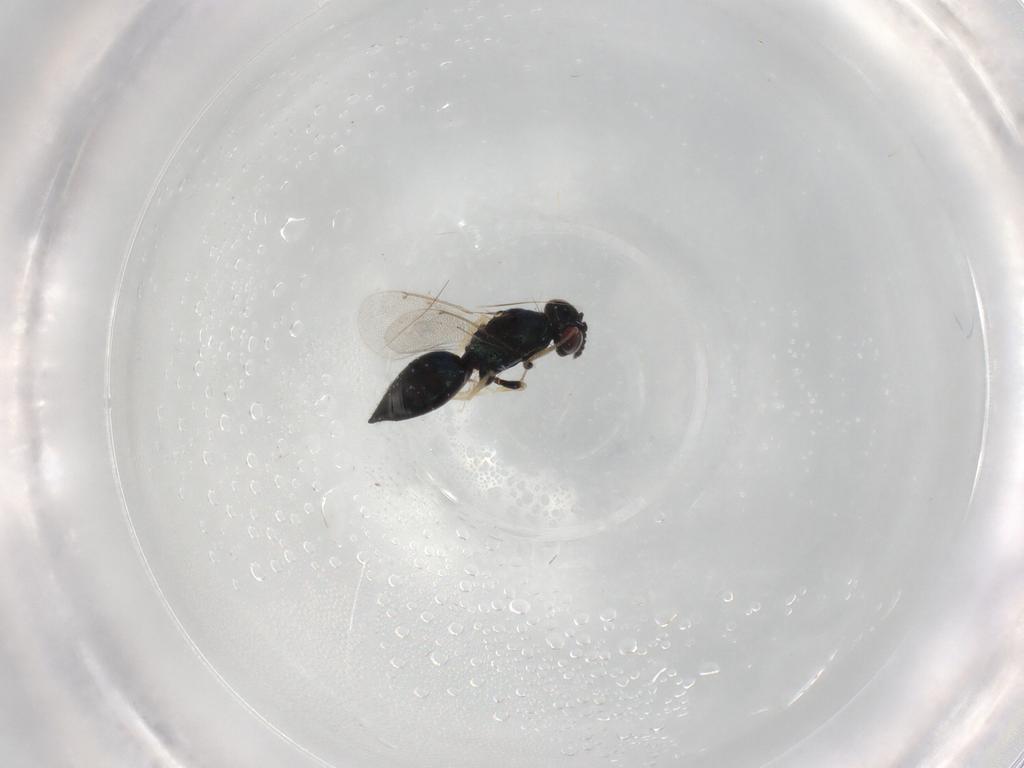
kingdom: Animalia
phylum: Arthropoda
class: Insecta
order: Hymenoptera
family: Eulophidae
